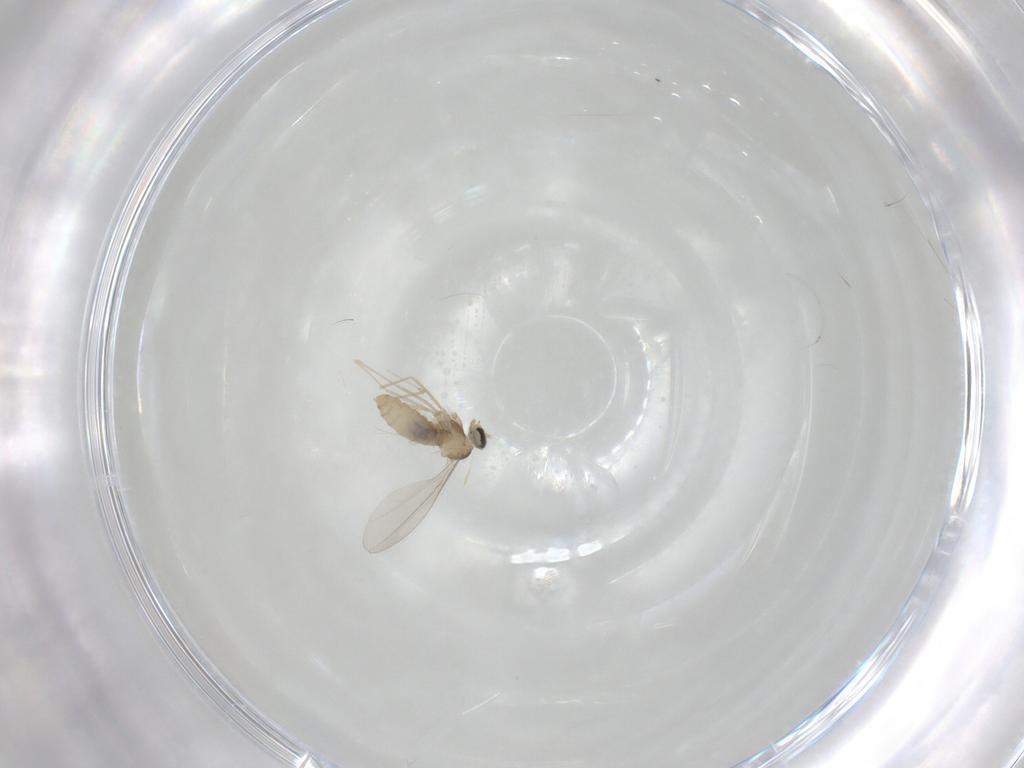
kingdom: Animalia
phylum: Arthropoda
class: Insecta
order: Diptera
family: Cecidomyiidae
